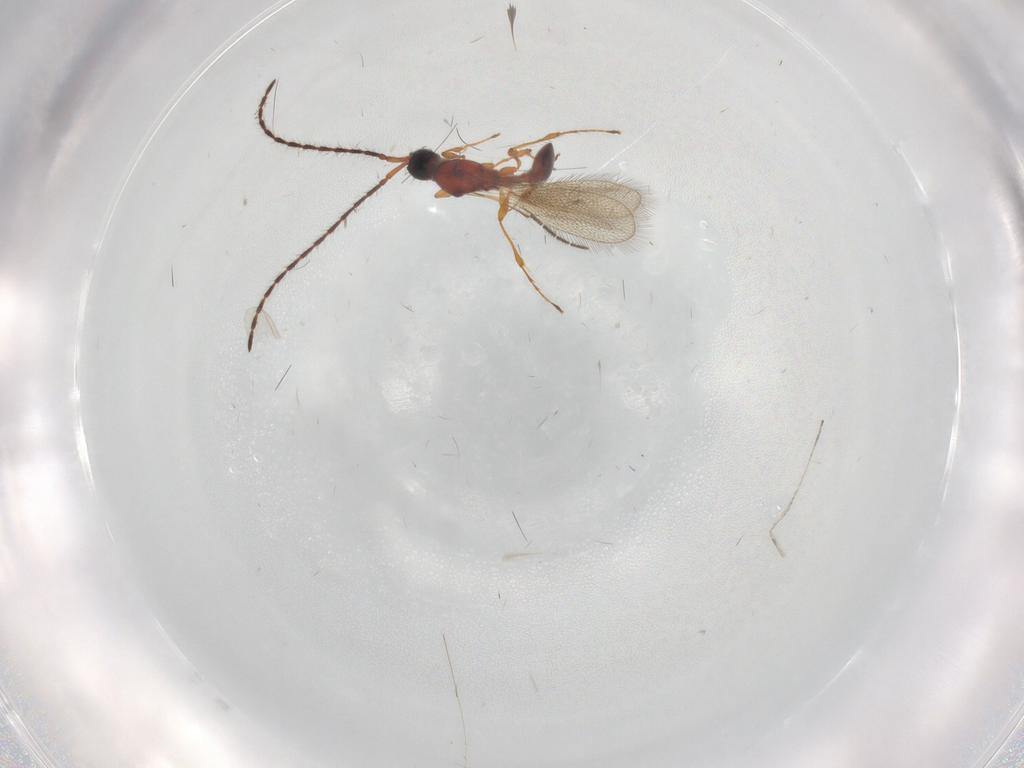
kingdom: Animalia
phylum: Arthropoda
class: Insecta
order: Hymenoptera
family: Diapriidae
